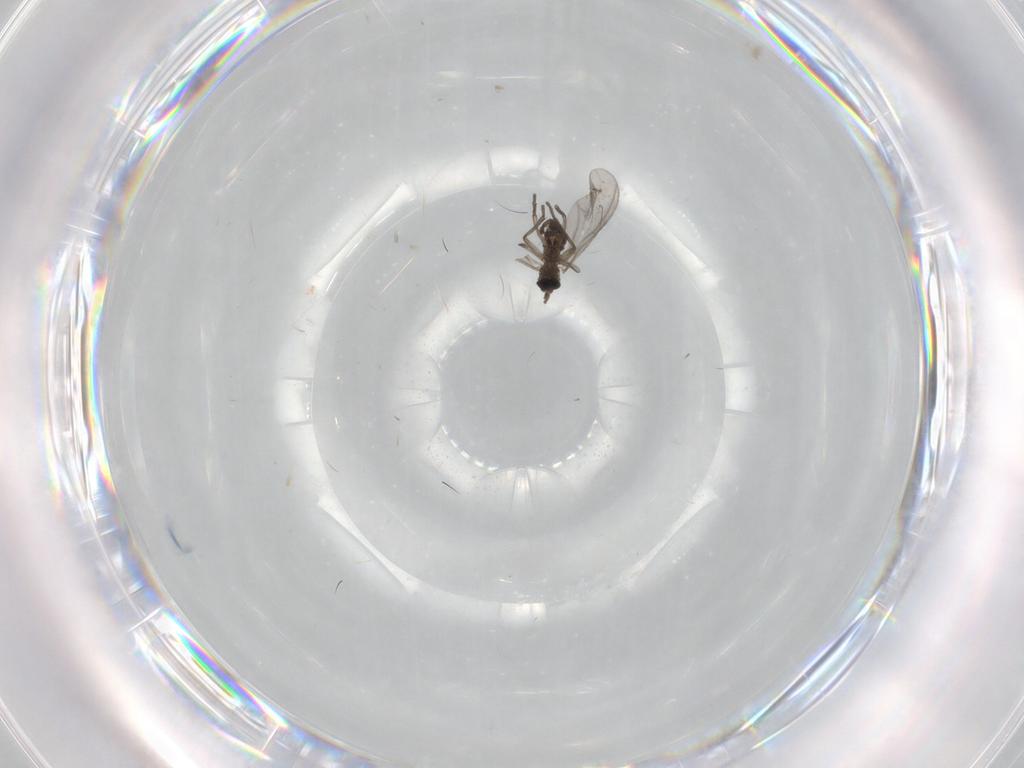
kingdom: Animalia
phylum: Arthropoda
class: Insecta
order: Diptera
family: Sciaridae
